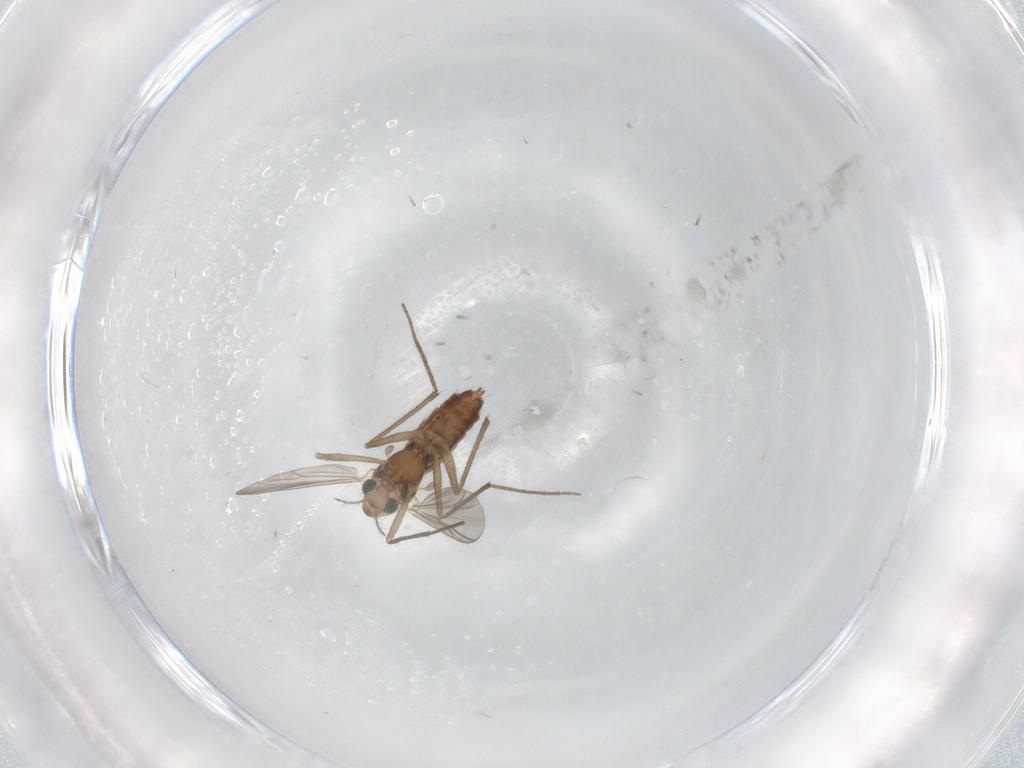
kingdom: Animalia
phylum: Arthropoda
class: Insecta
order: Diptera
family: Chironomidae
